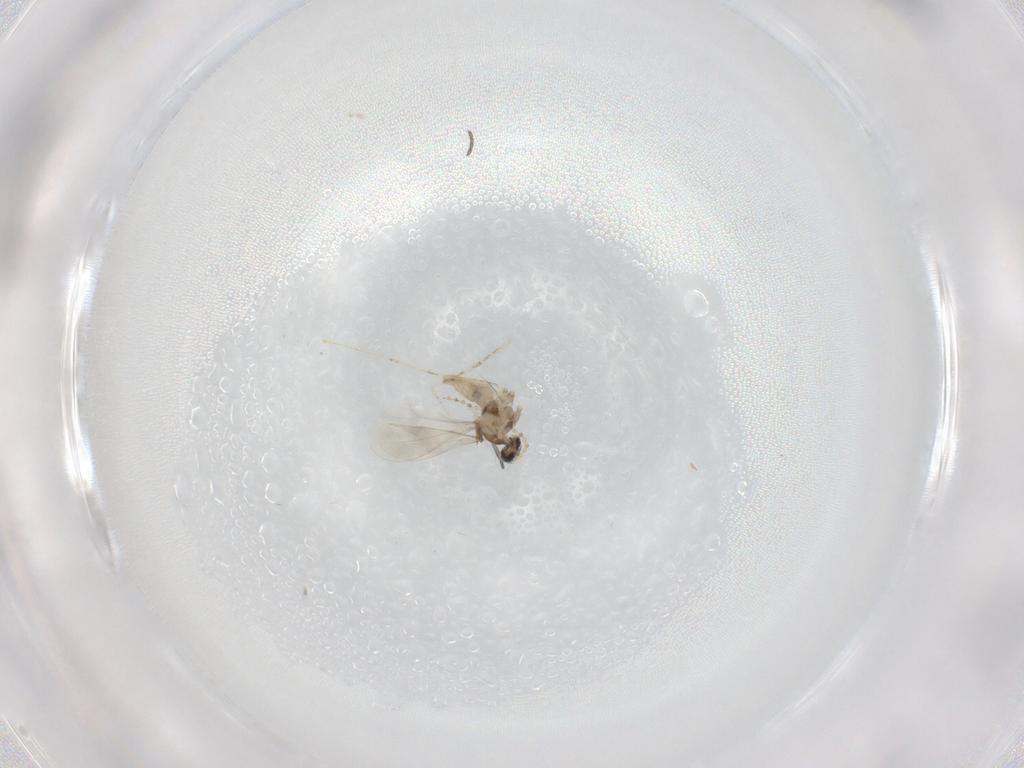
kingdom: Animalia
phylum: Arthropoda
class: Insecta
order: Diptera
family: Cecidomyiidae
